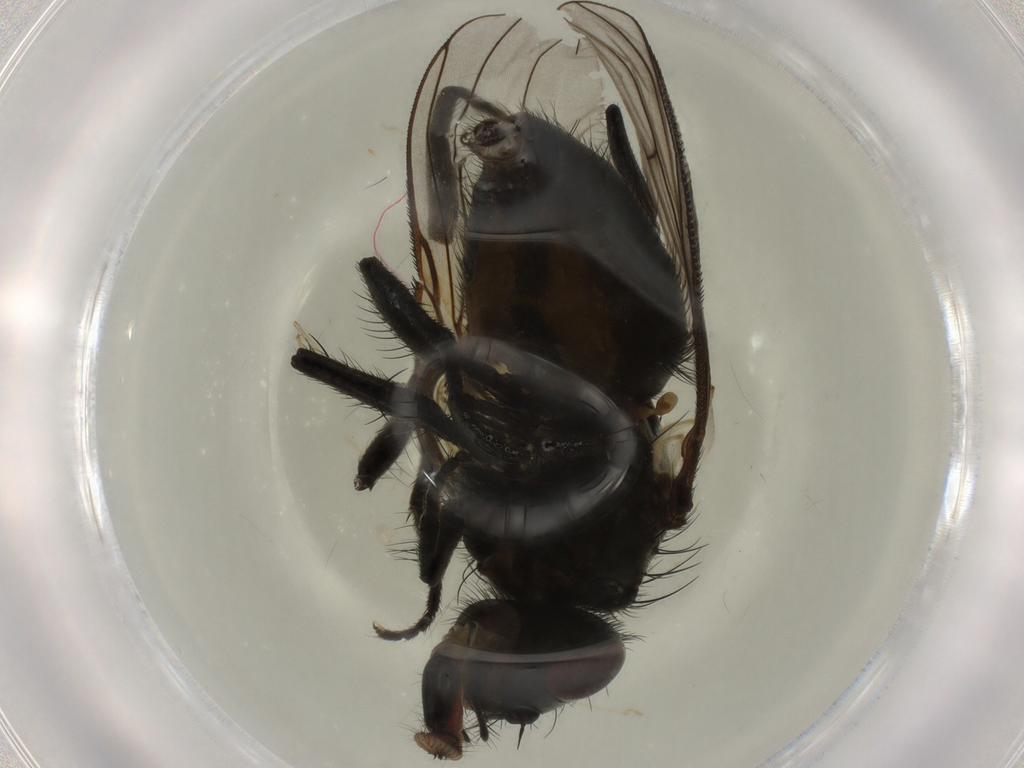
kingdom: Animalia
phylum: Arthropoda
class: Insecta
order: Diptera
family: Muscidae
